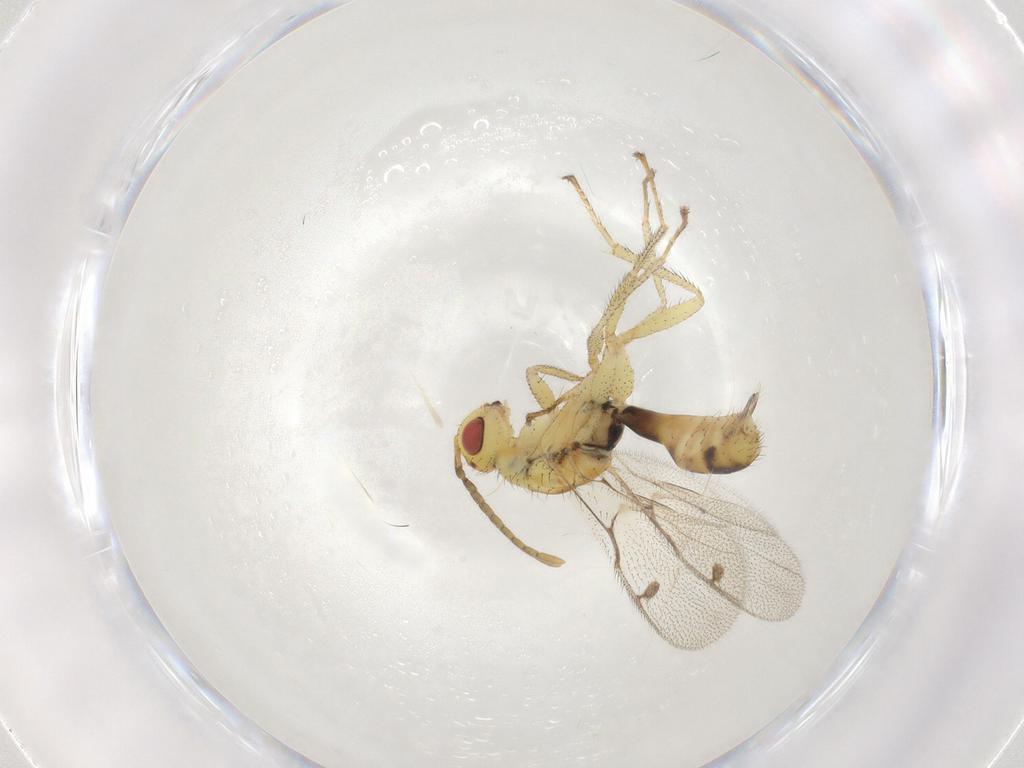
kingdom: Animalia
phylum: Arthropoda
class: Insecta
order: Hymenoptera
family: Megastigmidae
